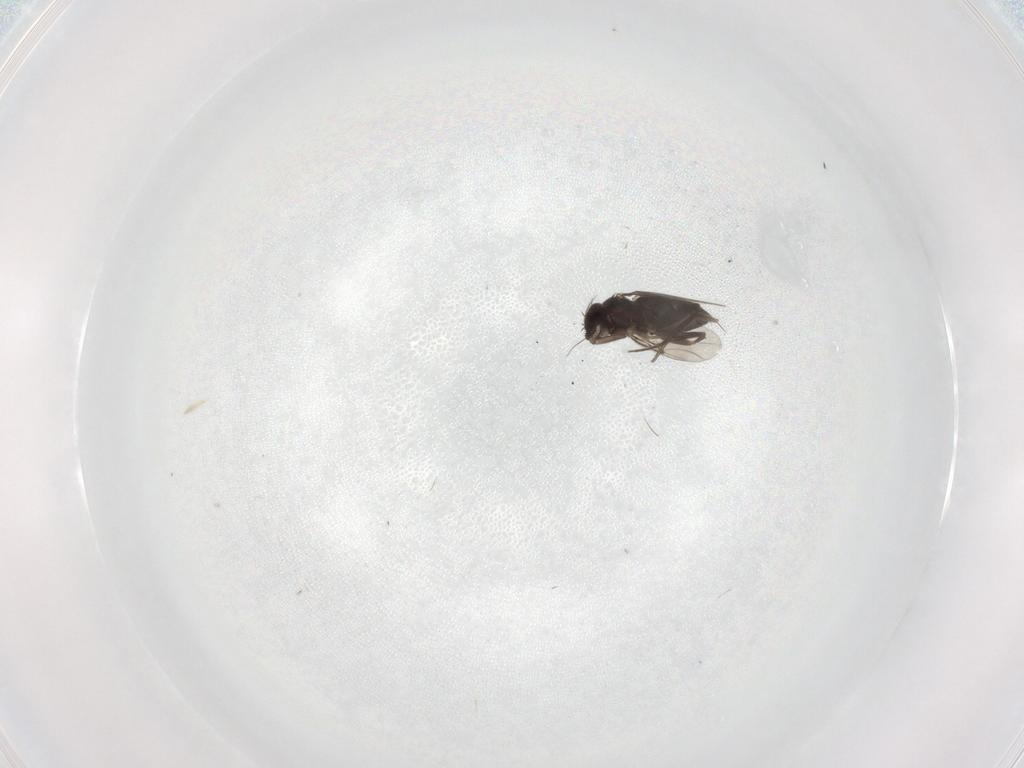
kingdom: Animalia
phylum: Arthropoda
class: Insecta
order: Diptera
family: Phoridae
